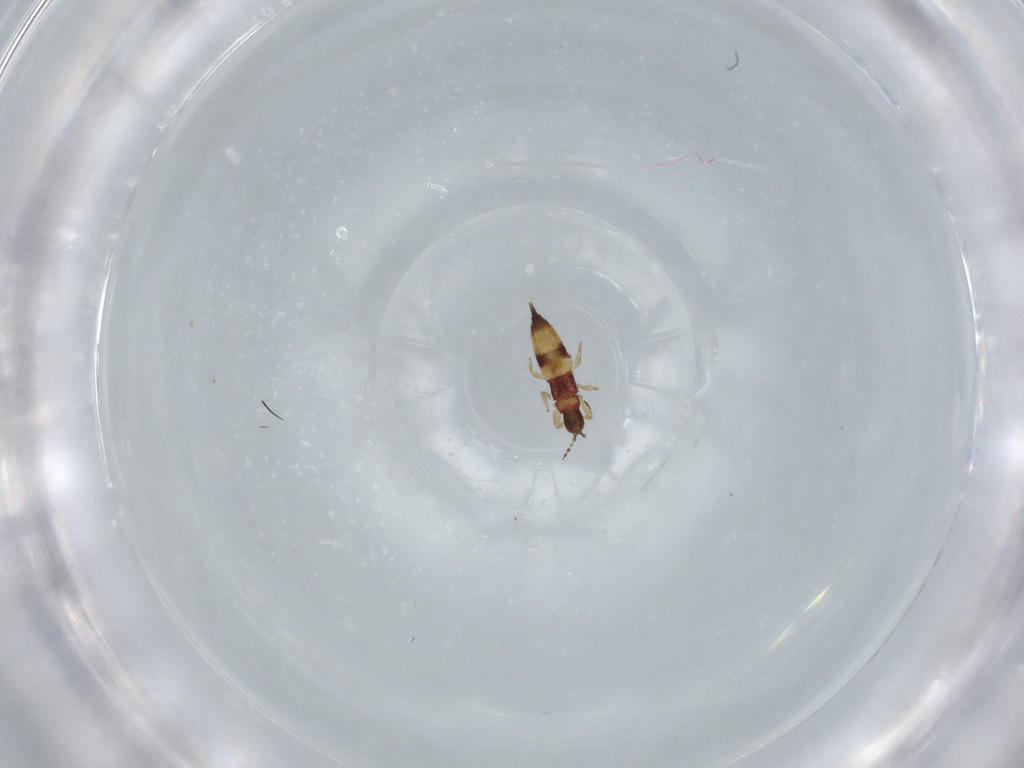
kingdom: Animalia
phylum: Arthropoda
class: Insecta
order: Thysanoptera
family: Phlaeothripidae
